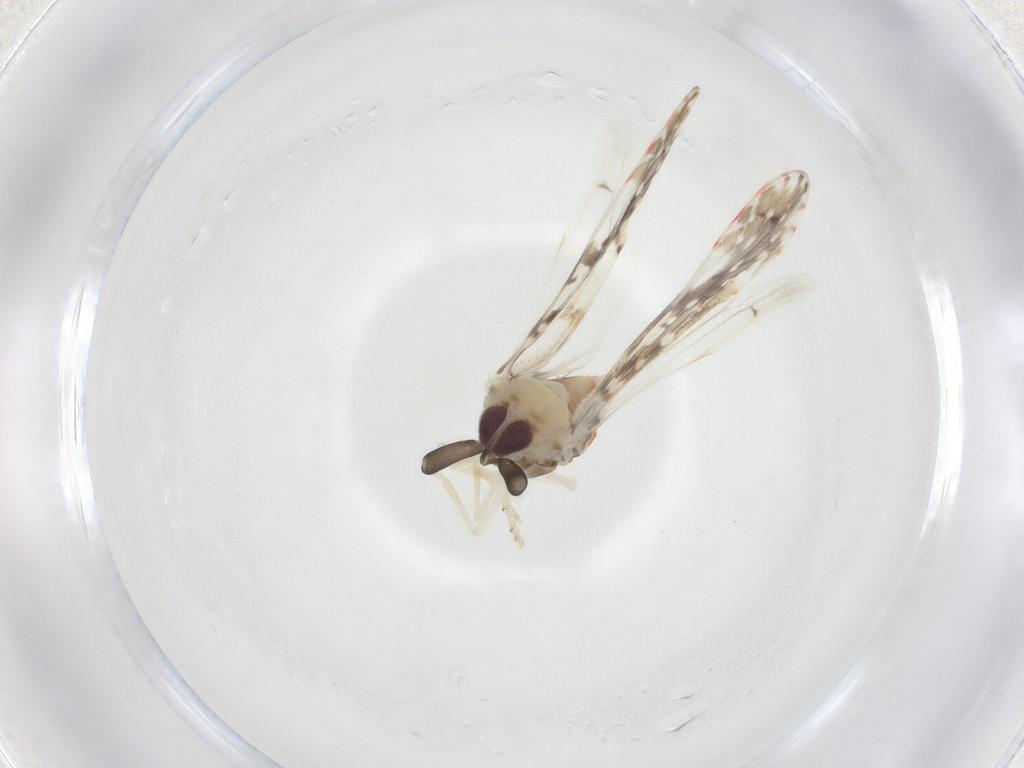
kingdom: Animalia
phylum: Arthropoda
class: Insecta
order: Hemiptera
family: Derbidae
